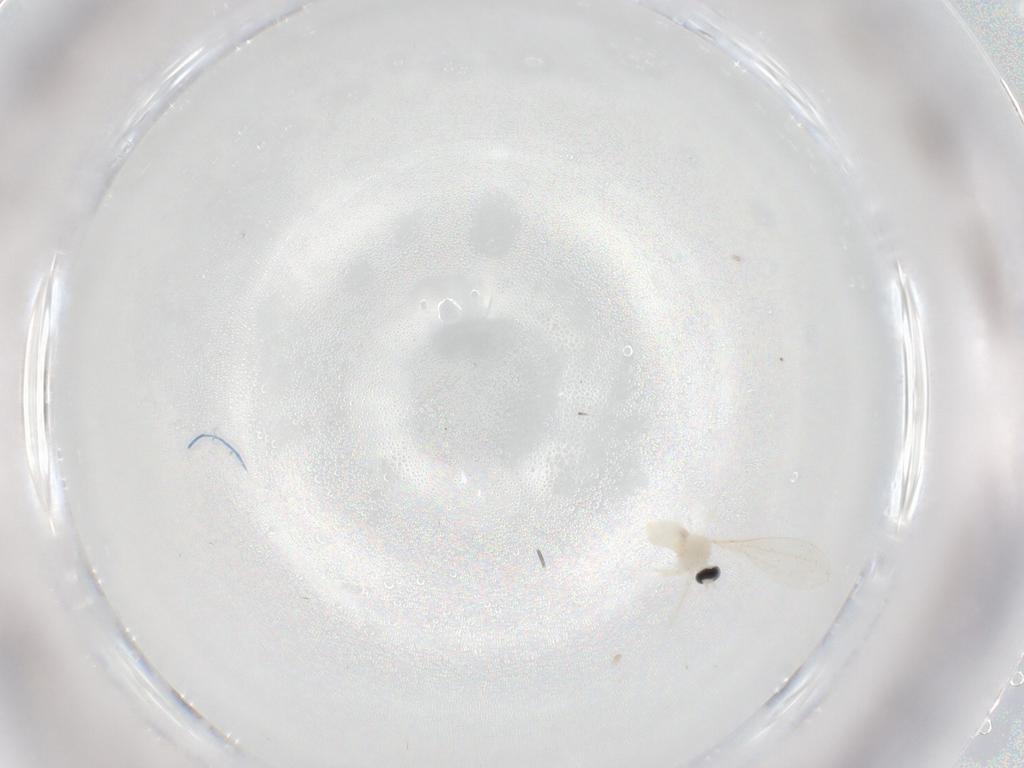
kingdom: Animalia
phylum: Arthropoda
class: Insecta
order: Diptera
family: Cecidomyiidae
